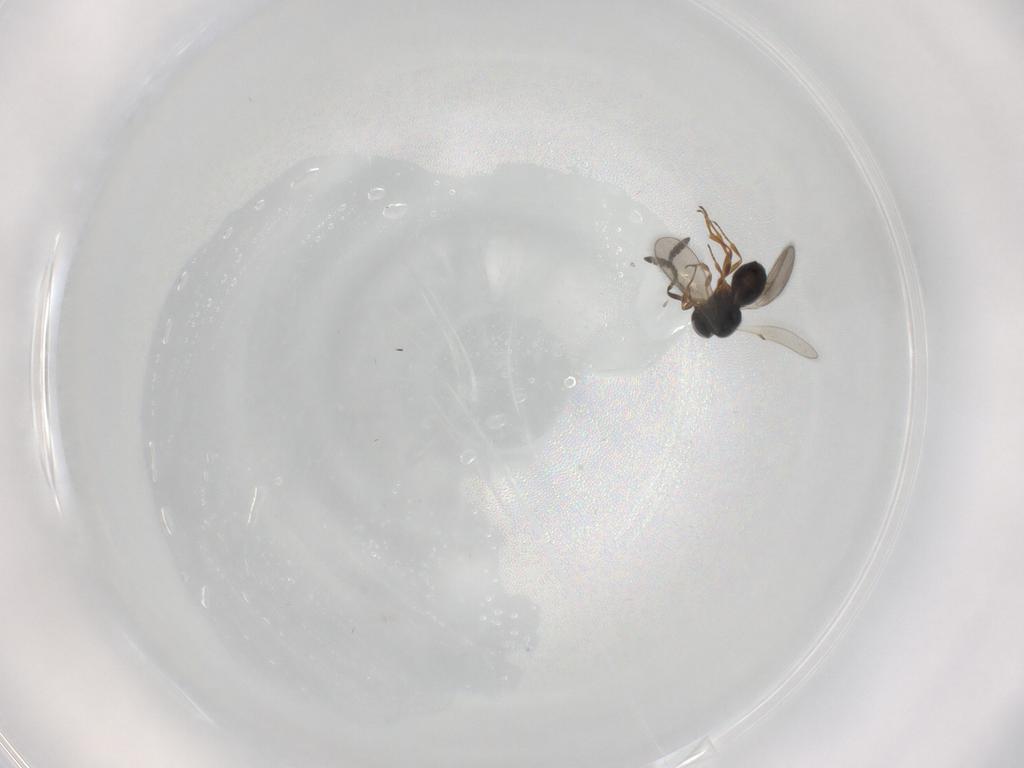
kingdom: Animalia
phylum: Arthropoda
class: Insecta
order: Hymenoptera
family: Scelionidae
